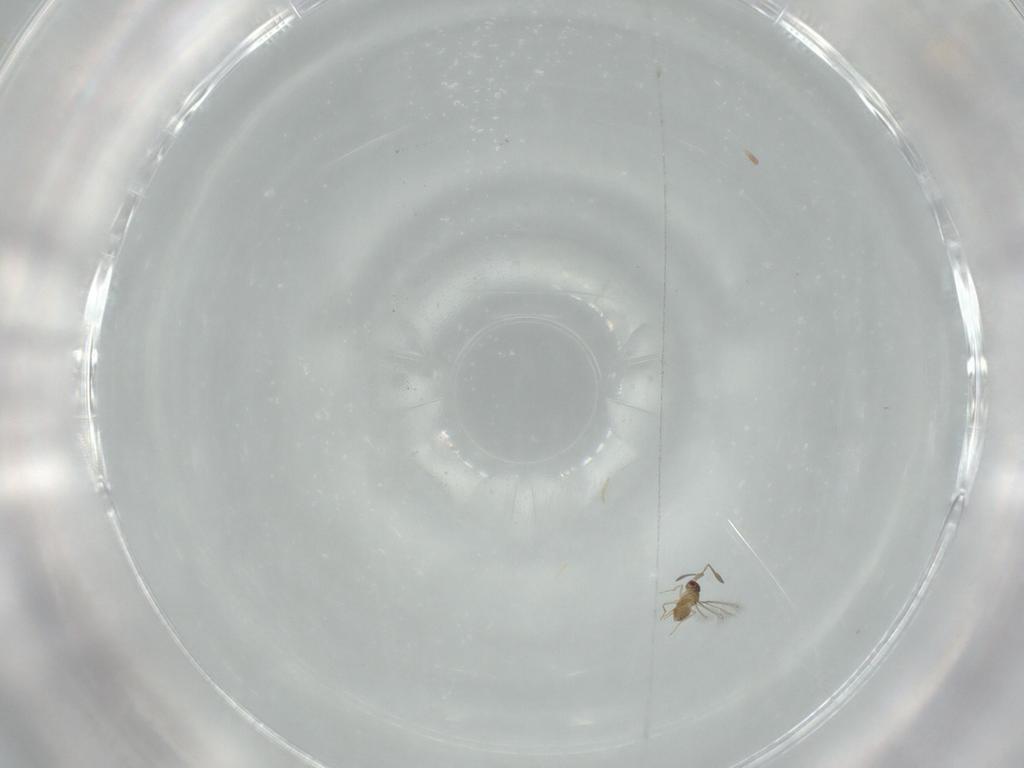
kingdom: Animalia
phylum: Arthropoda
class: Insecta
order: Hymenoptera
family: Mymaridae
